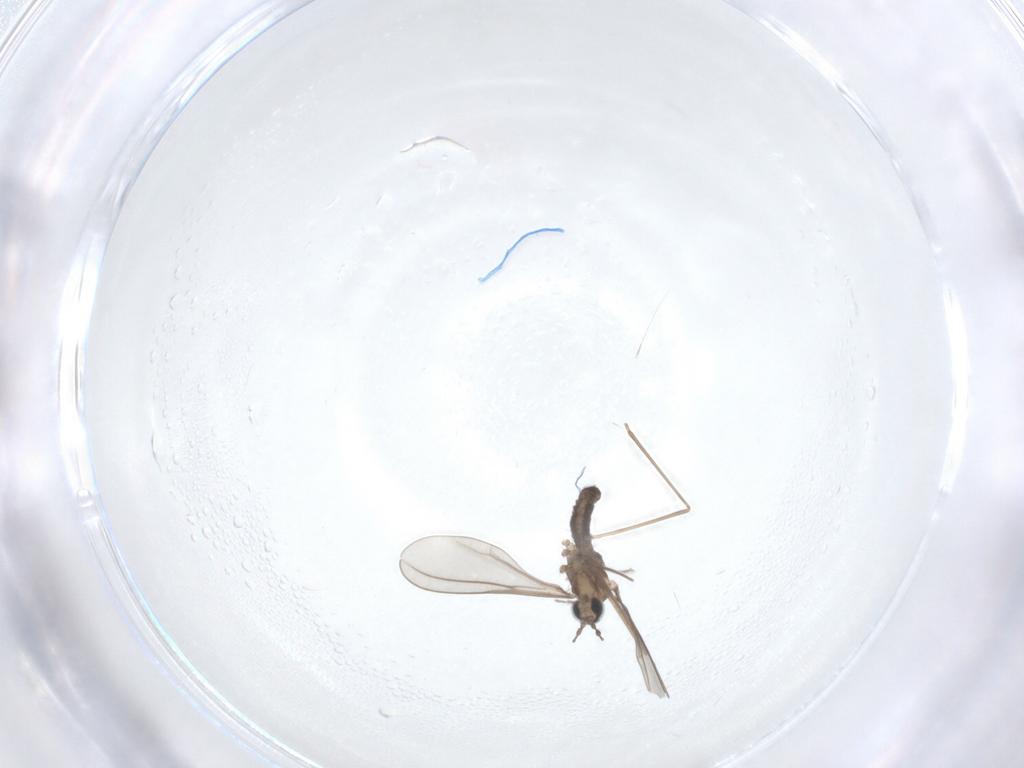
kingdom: Animalia
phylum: Arthropoda
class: Insecta
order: Diptera
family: Cecidomyiidae
